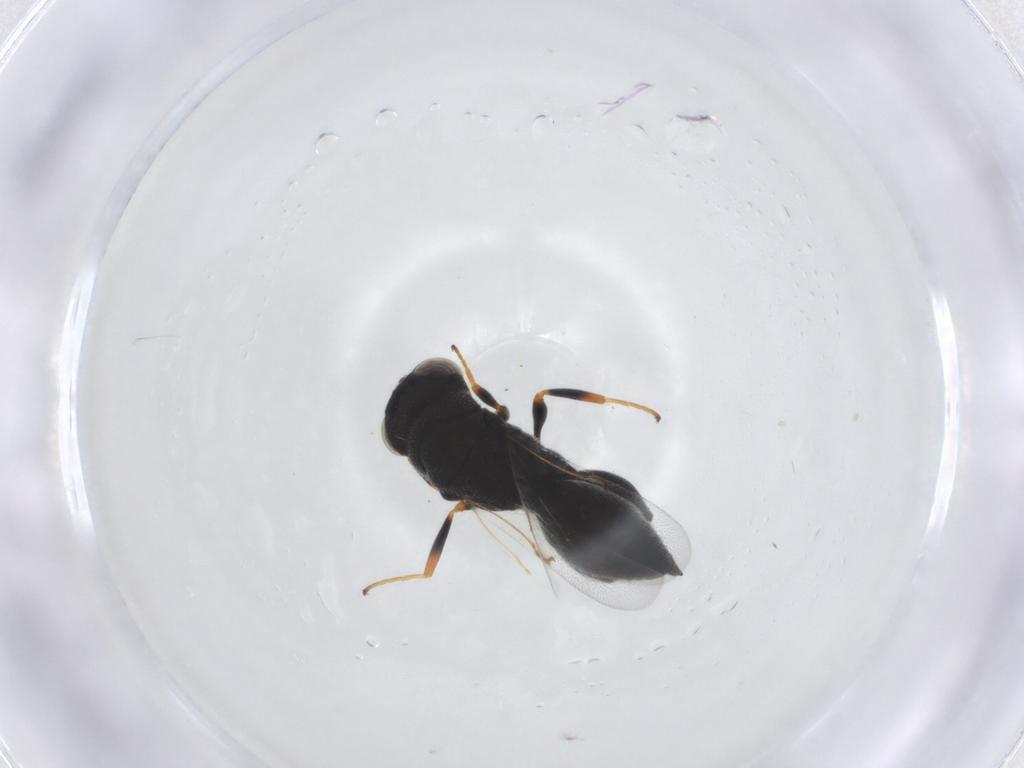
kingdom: Animalia
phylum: Arthropoda
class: Insecta
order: Hymenoptera
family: Chalcididae
